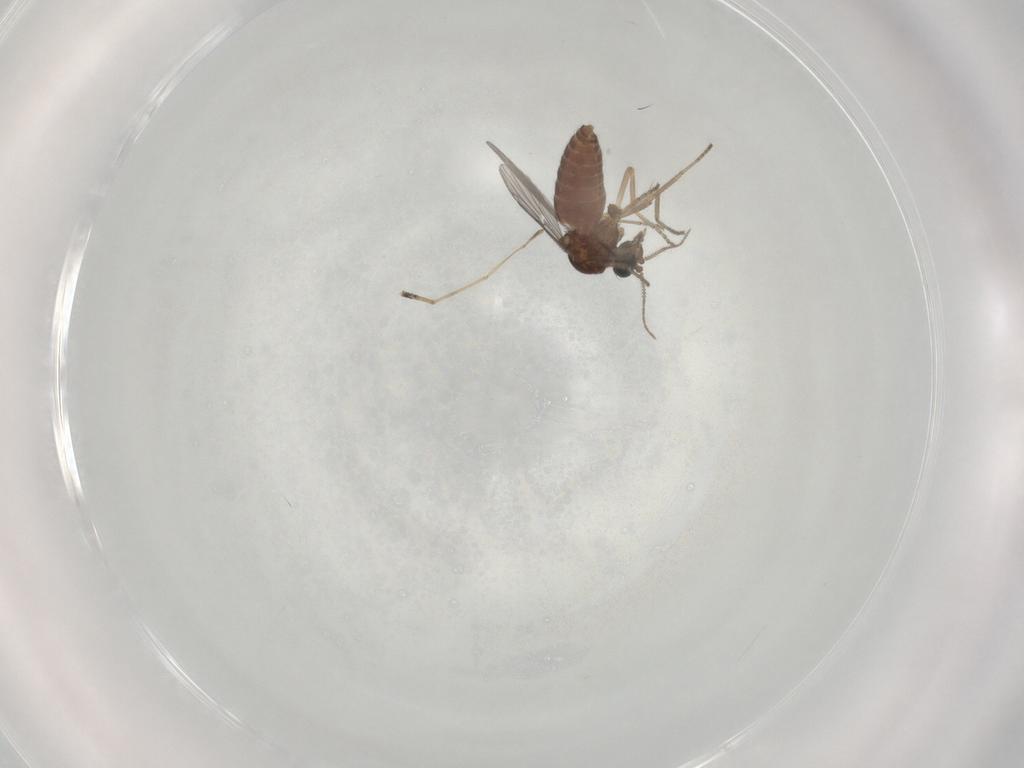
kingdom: Animalia
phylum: Arthropoda
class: Insecta
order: Diptera
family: Ceratopogonidae
